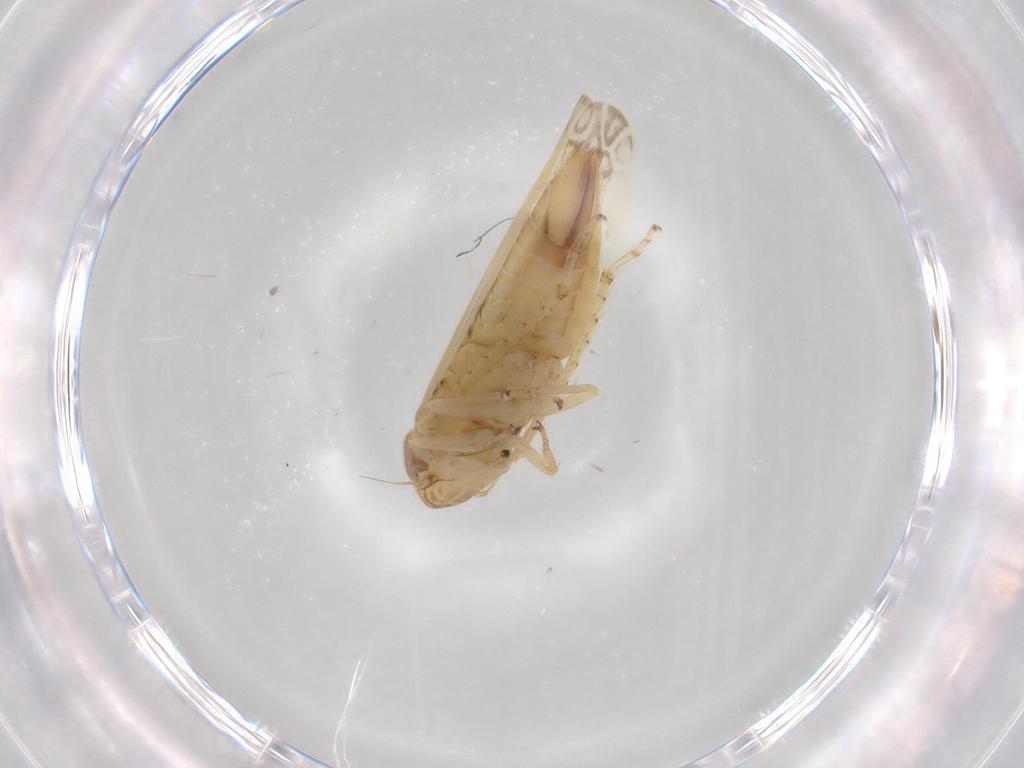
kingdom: Animalia
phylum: Arthropoda
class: Insecta
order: Hemiptera
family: Cicadellidae
